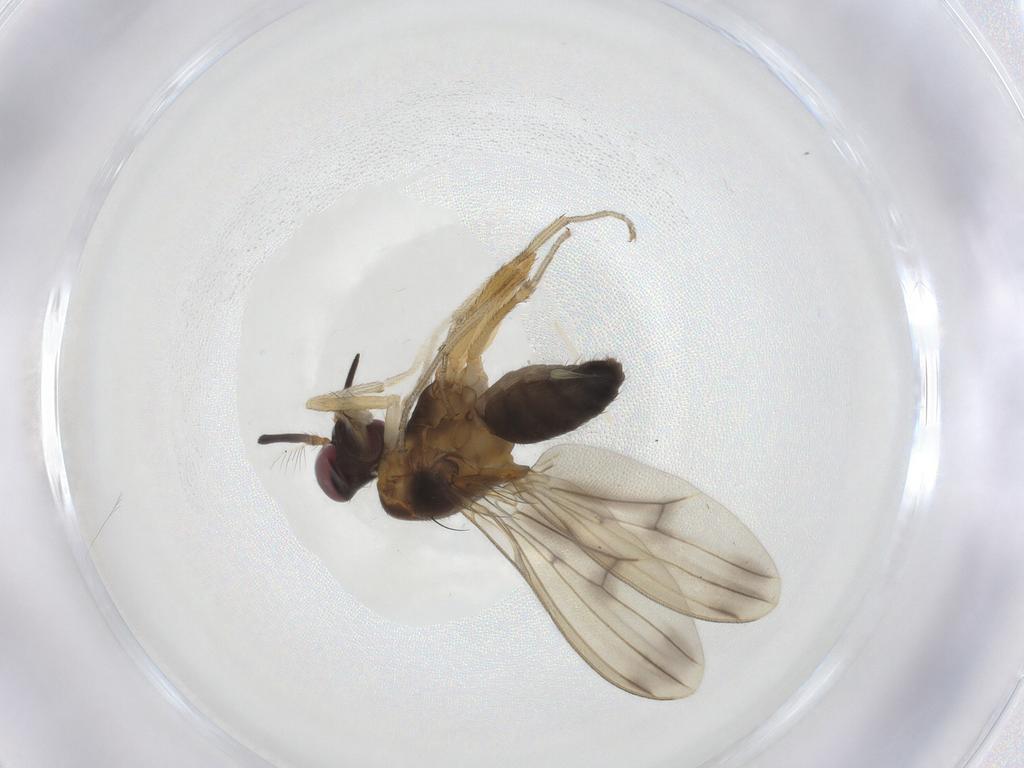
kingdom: Animalia
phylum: Arthropoda
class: Insecta
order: Diptera
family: Lauxaniidae
